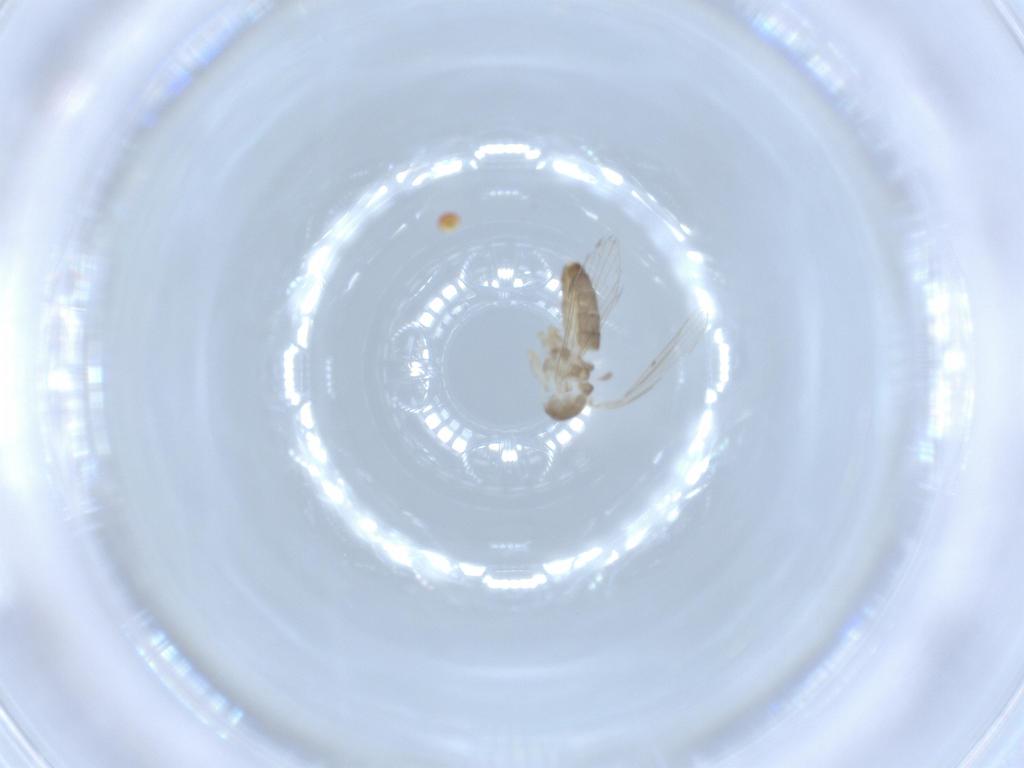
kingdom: Animalia
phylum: Arthropoda
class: Insecta
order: Diptera
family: Psychodidae
